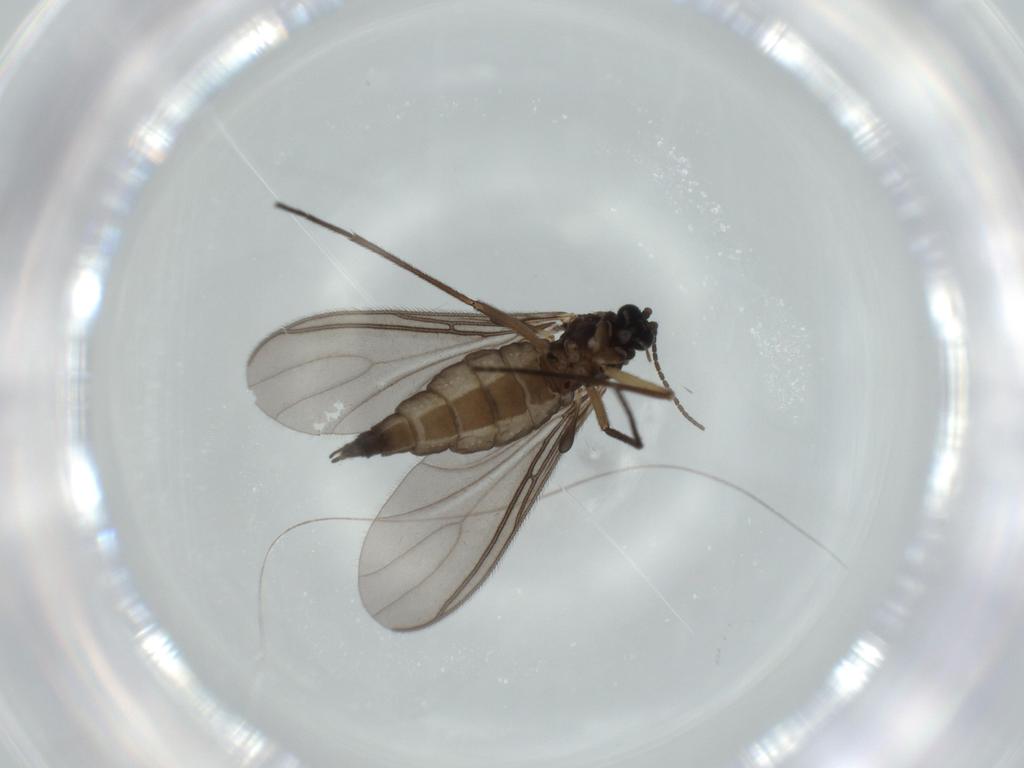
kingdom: Animalia
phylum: Arthropoda
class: Insecta
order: Diptera
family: Sciaridae
